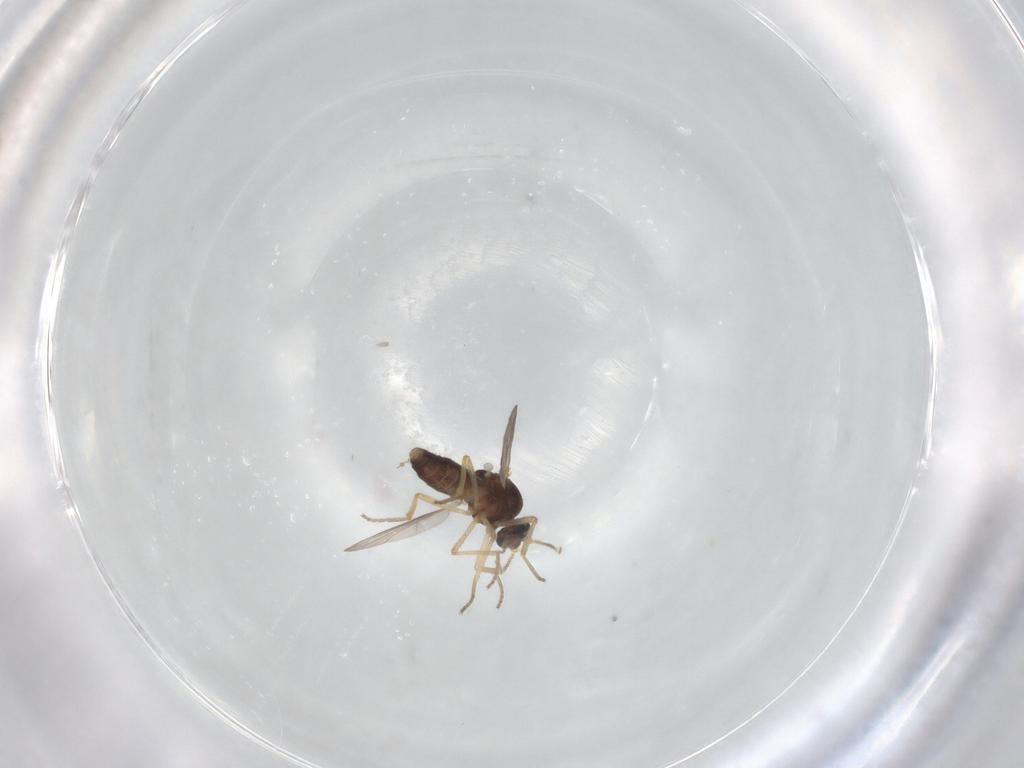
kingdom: Animalia
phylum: Arthropoda
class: Insecta
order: Diptera
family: Ceratopogonidae
